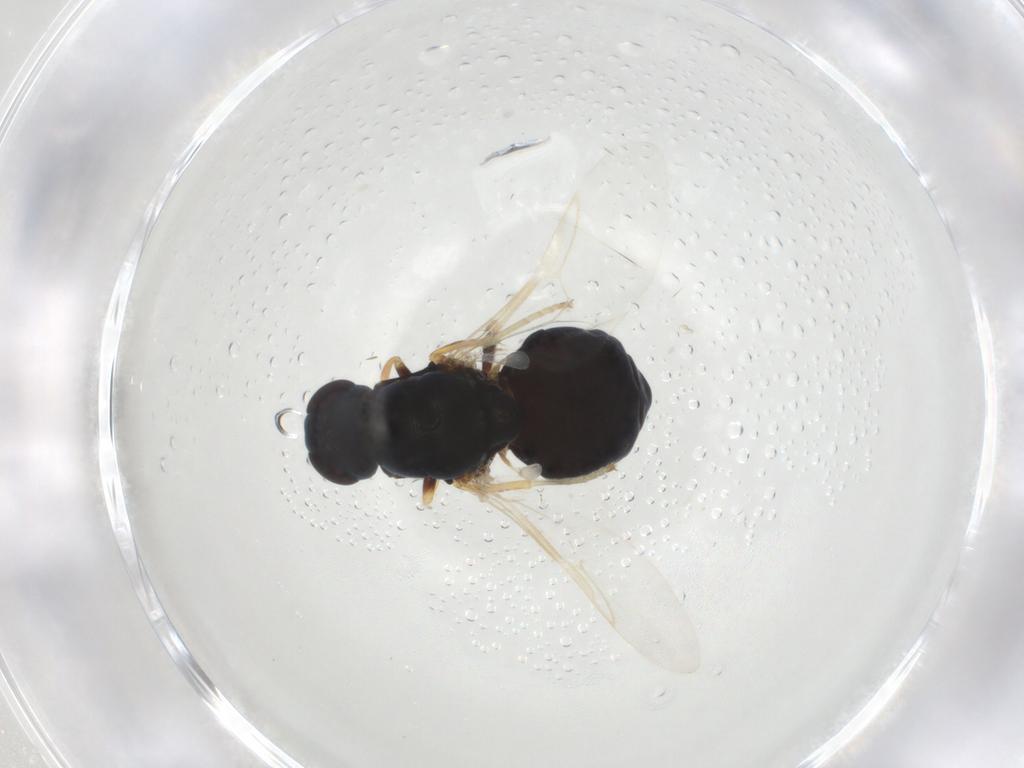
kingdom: Animalia
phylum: Arthropoda
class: Insecta
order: Diptera
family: Stratiomyidae
